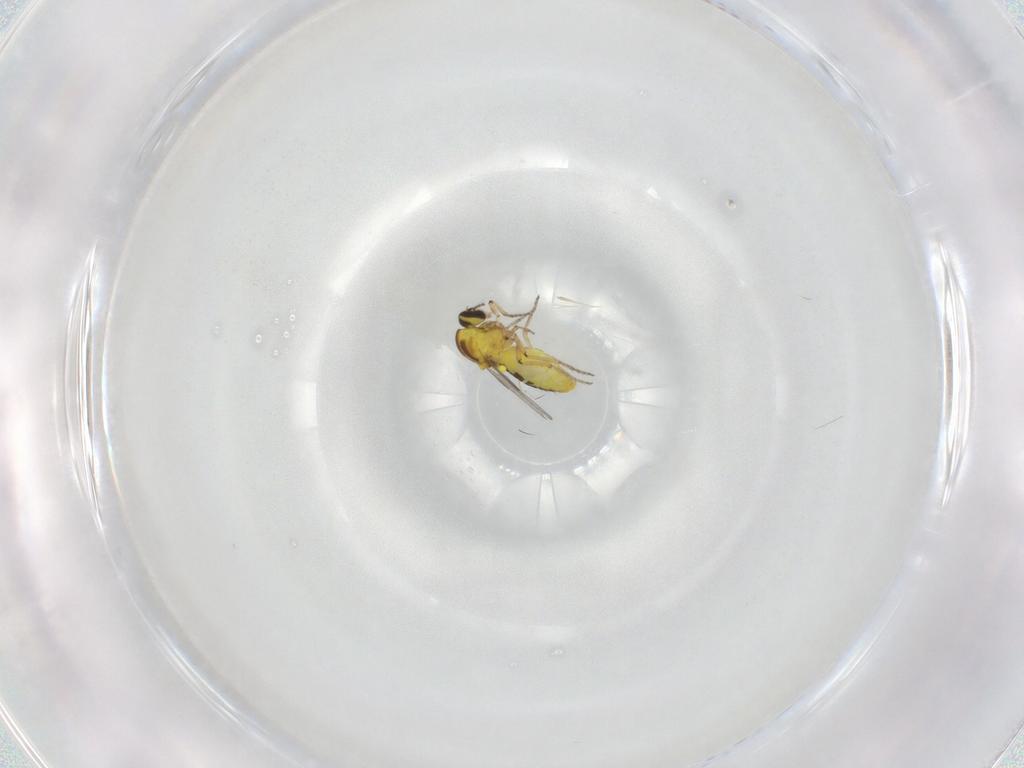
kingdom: Animalia
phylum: Arthropoda
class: Insecta
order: Diptera
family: Ceratopogonidae
